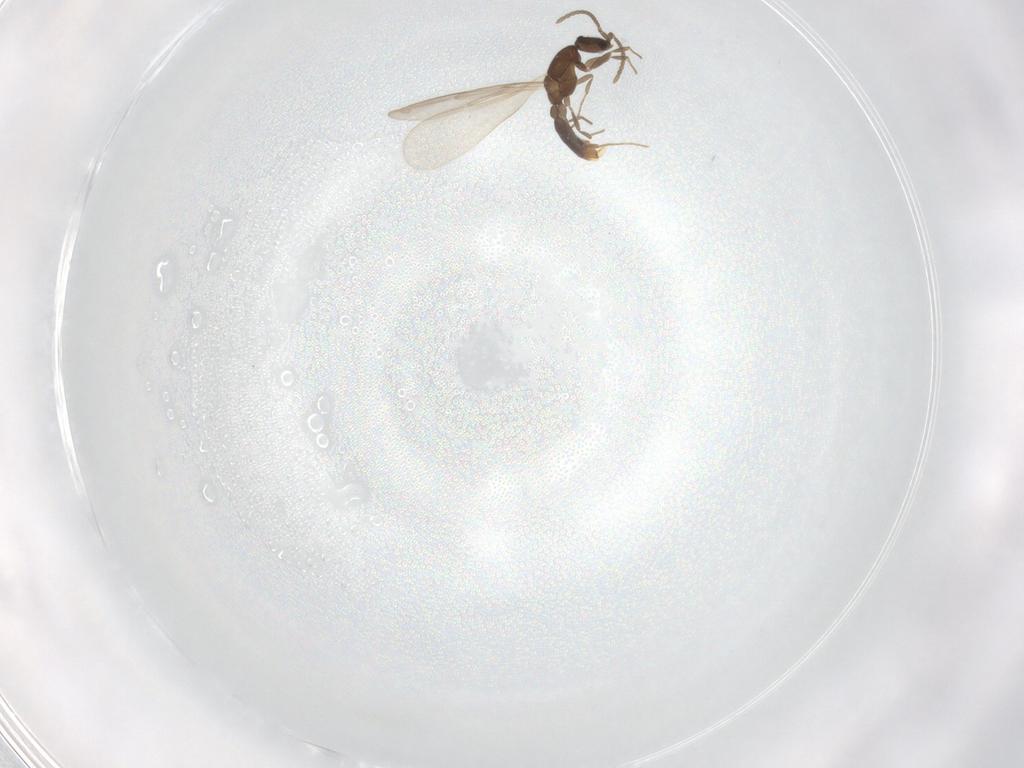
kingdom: Animalia
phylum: Arthropoda
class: Insecta
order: Hymenoptera
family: Formicidae
